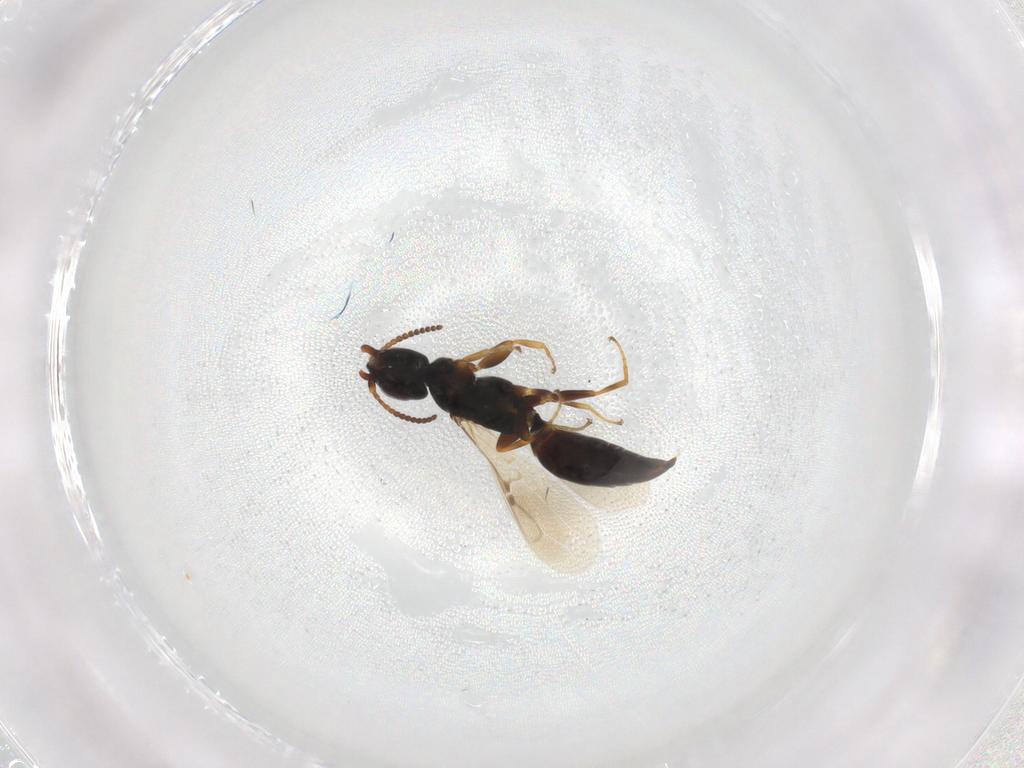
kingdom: Animalia
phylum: Arthropoda
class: Insecta
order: Hymenoptera
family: Bethylidae
